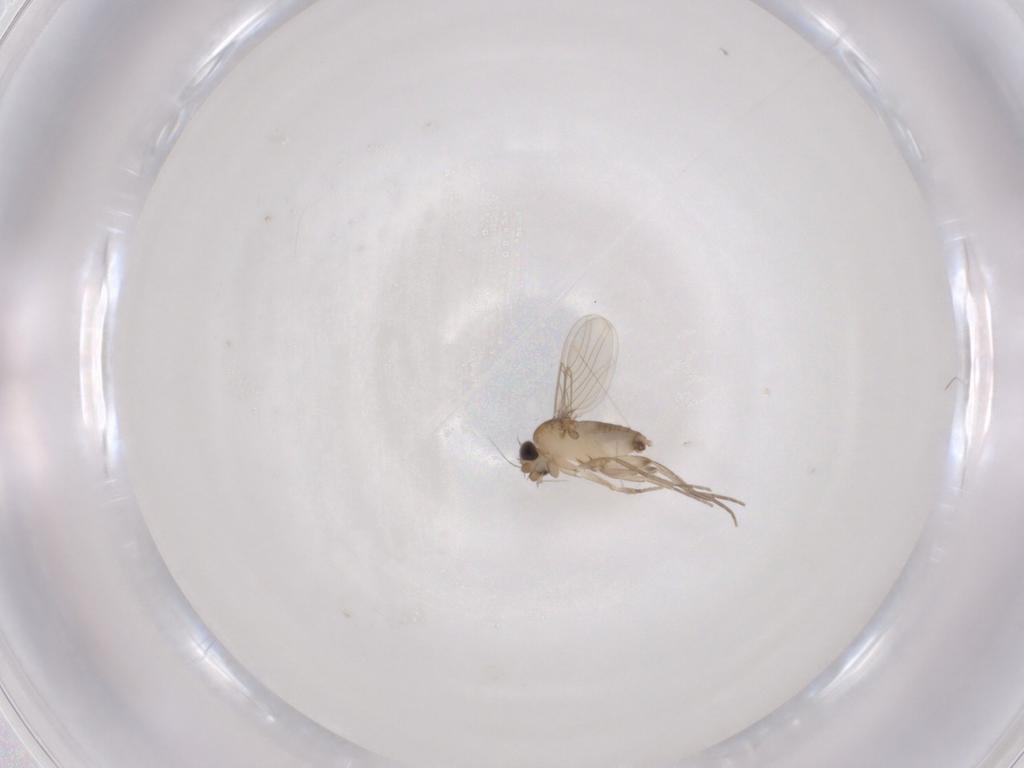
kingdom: Animalia
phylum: Arthropoda
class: Insecta
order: Diptera
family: Phoridae
